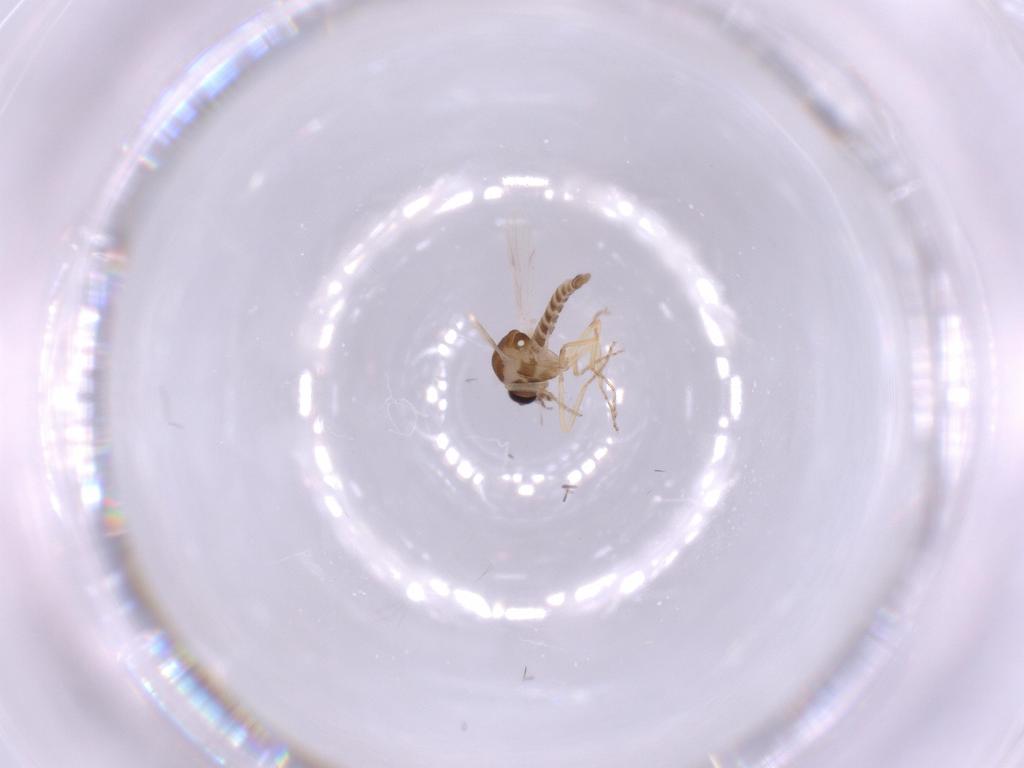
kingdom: Animalia
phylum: Arthropoda
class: Insecta
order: Diptera
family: Ceratopogonidae
